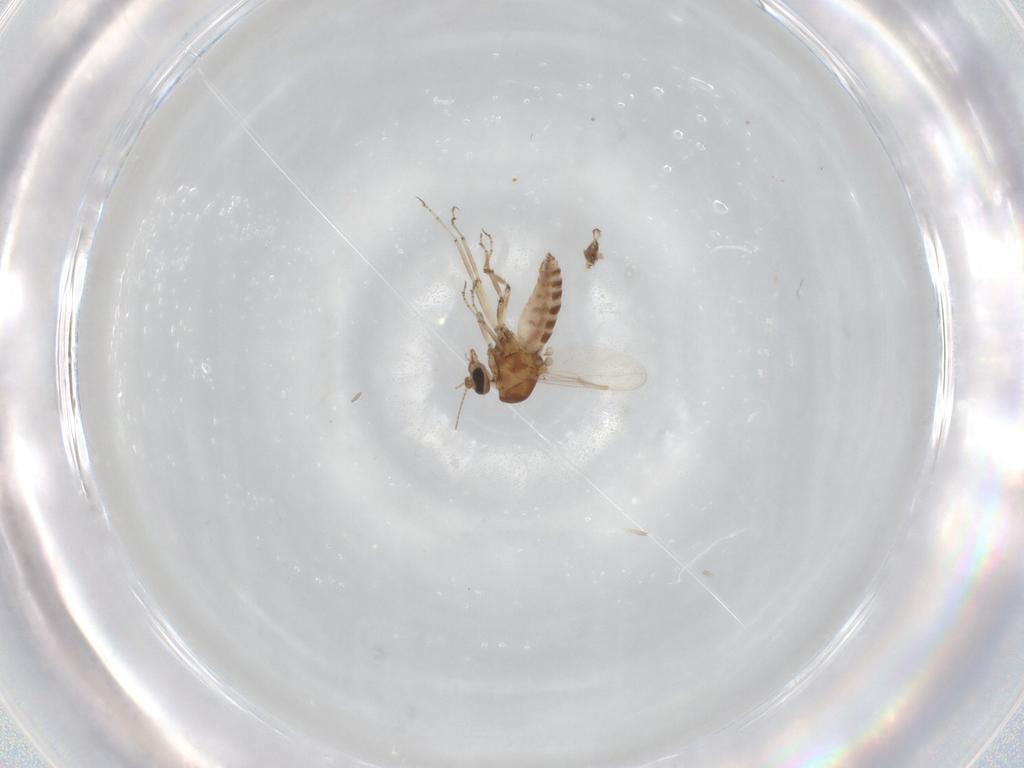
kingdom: Animalia
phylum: Arthropoda
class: Insecta
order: Diptera
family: Ceratopogonidae
